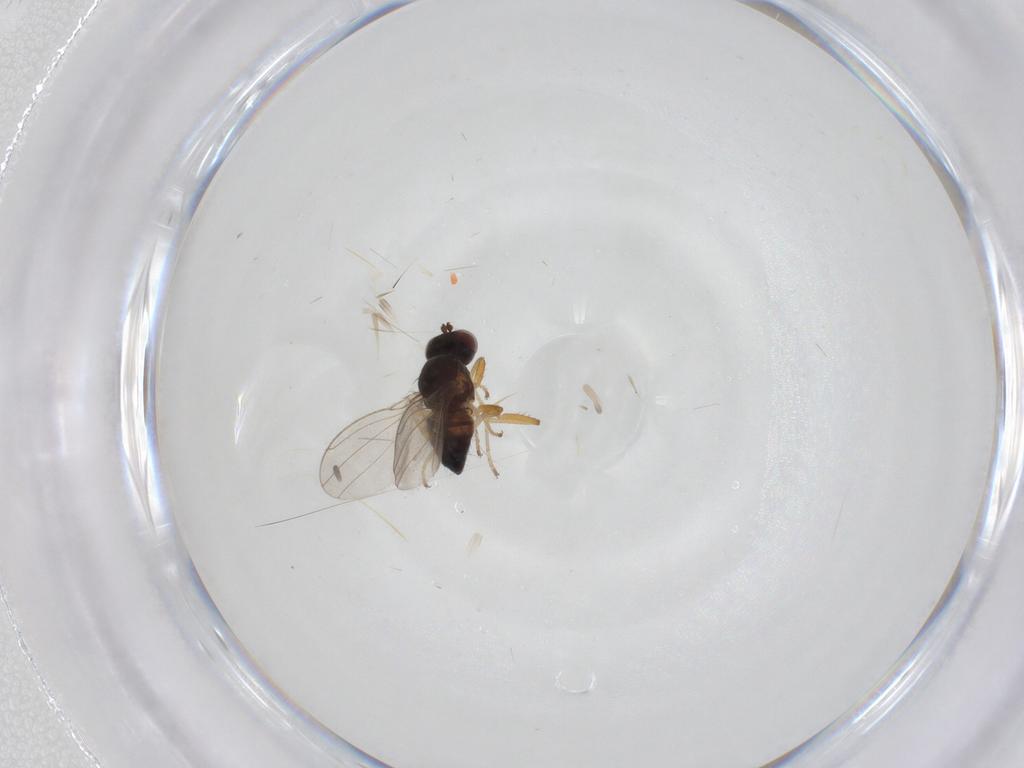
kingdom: Animalia
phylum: Arthropoda
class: Insecta
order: Diptera
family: Ephydridae
